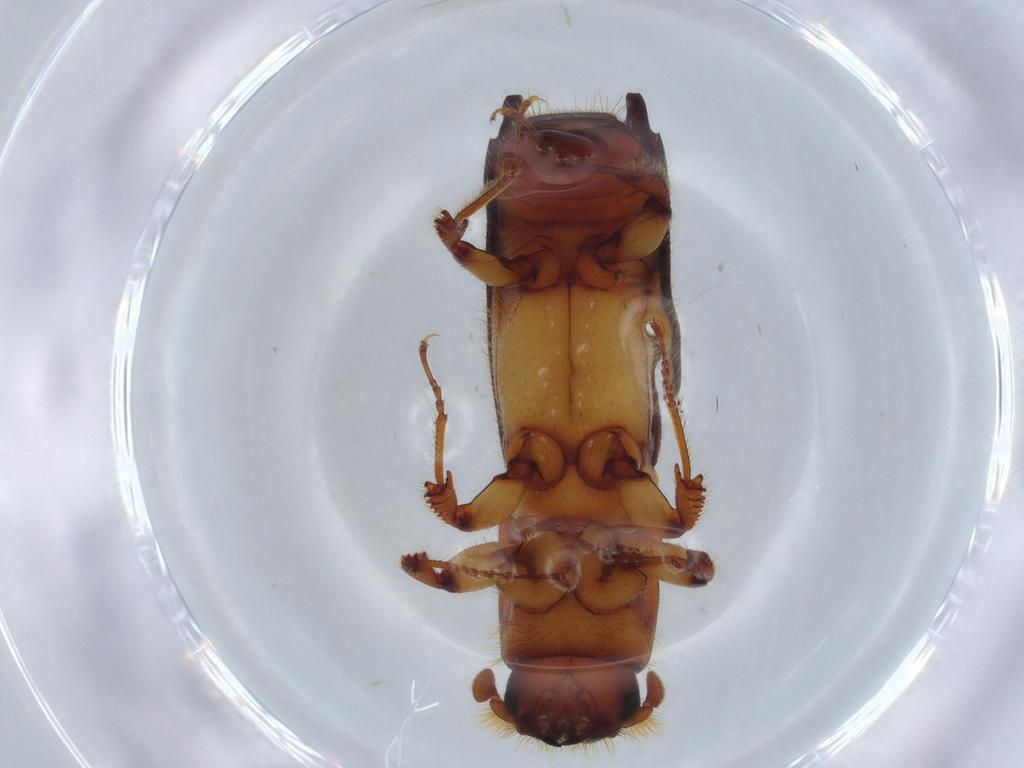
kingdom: Animalia
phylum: Arthropoda
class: Insecta
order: Coleoptera
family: Curculionidae
